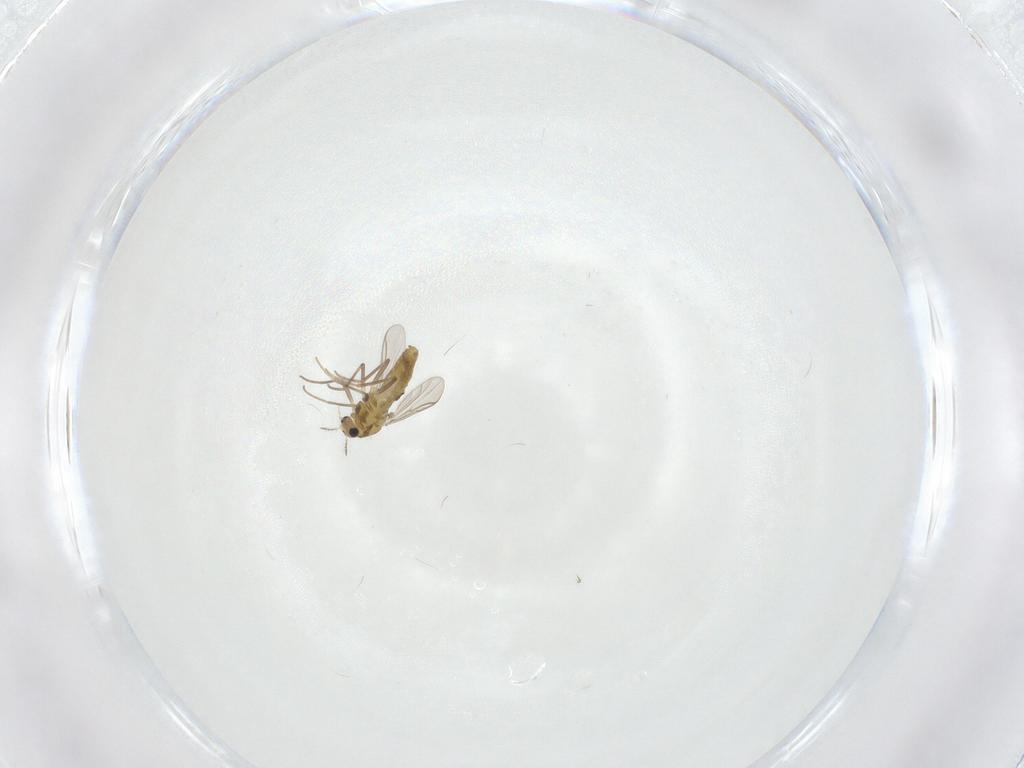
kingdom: Animalia
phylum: Arthropoda
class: Insecta
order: Diptera
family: Chironomidae
